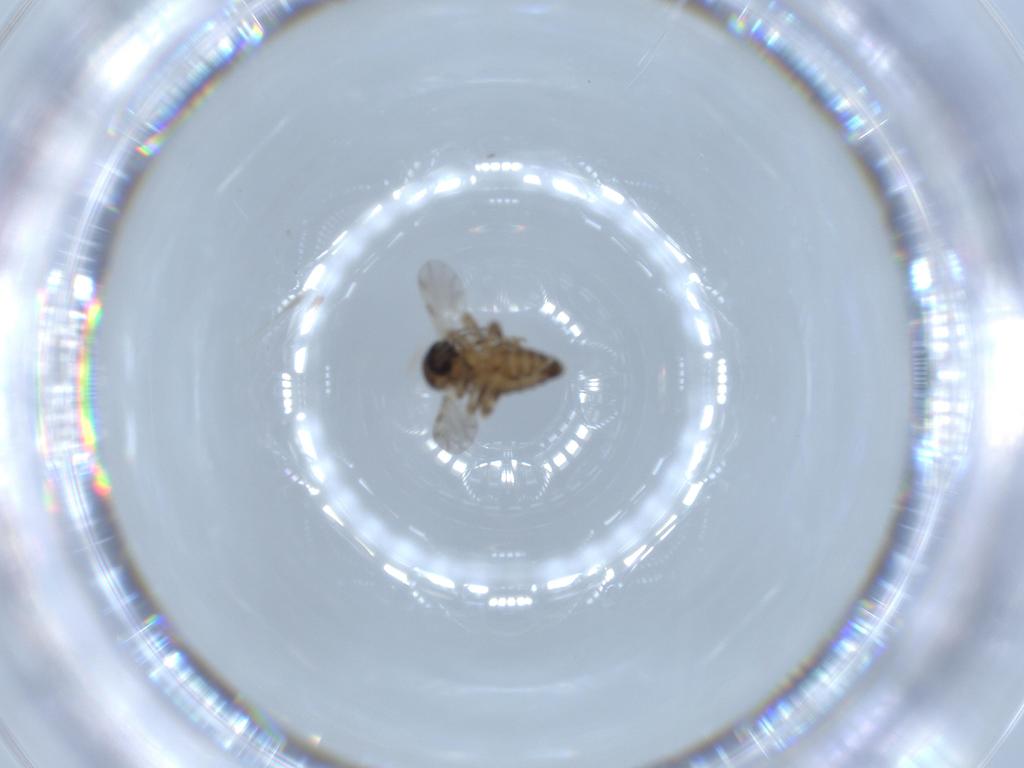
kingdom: Animalia
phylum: Arthropoda
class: Insecta
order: Diptera
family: Ceratopogonidae
